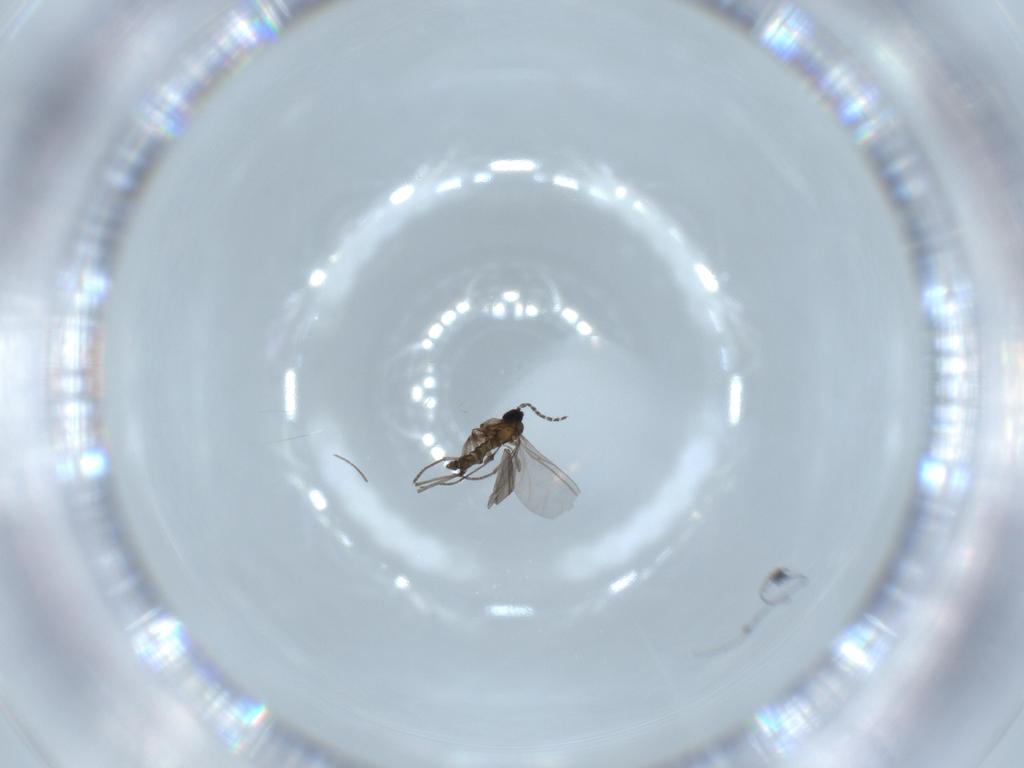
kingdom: Animalia
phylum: Arthropoda
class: Insecta
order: Diptera
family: Sciaridae
